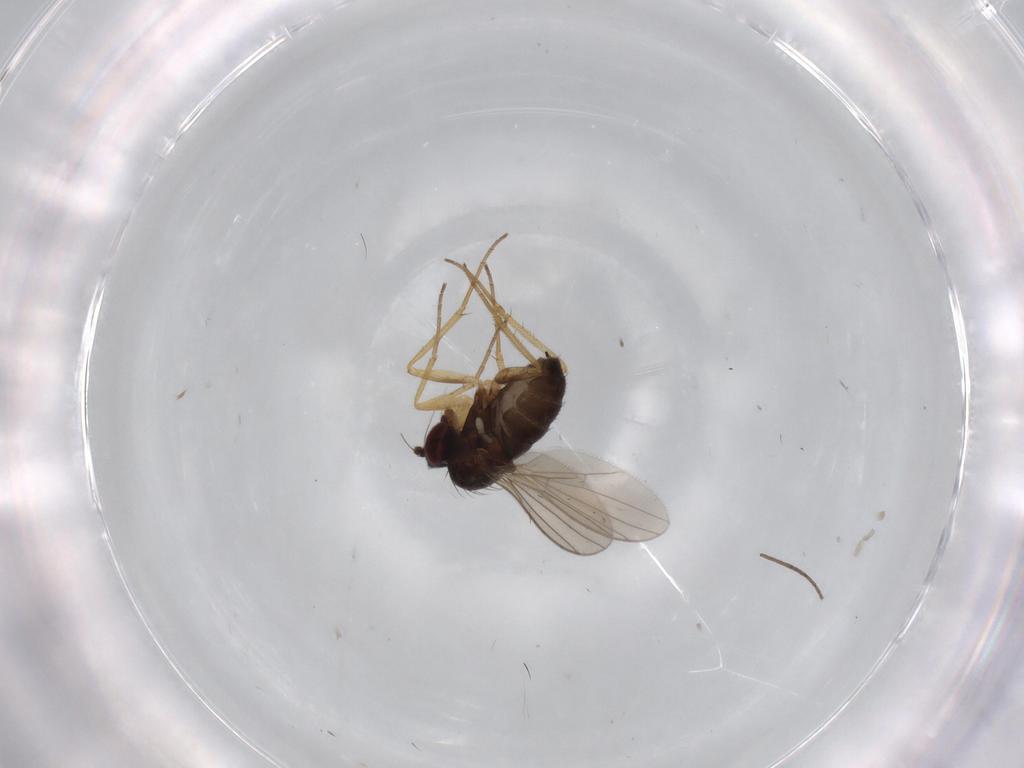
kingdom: Animalia
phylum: Arthropoda
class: Insecta
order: Diptera
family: Dolichopodidae
